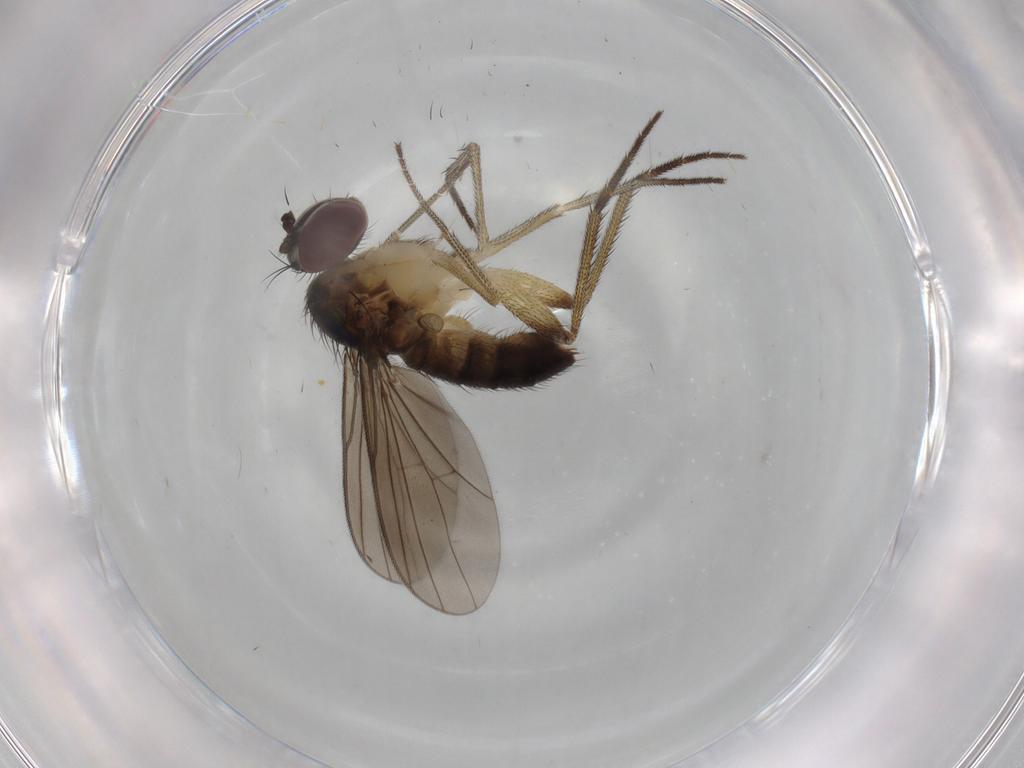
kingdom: Animalia
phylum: Arthropoda
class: Insecta
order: Diptera
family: Dolichopodidae
